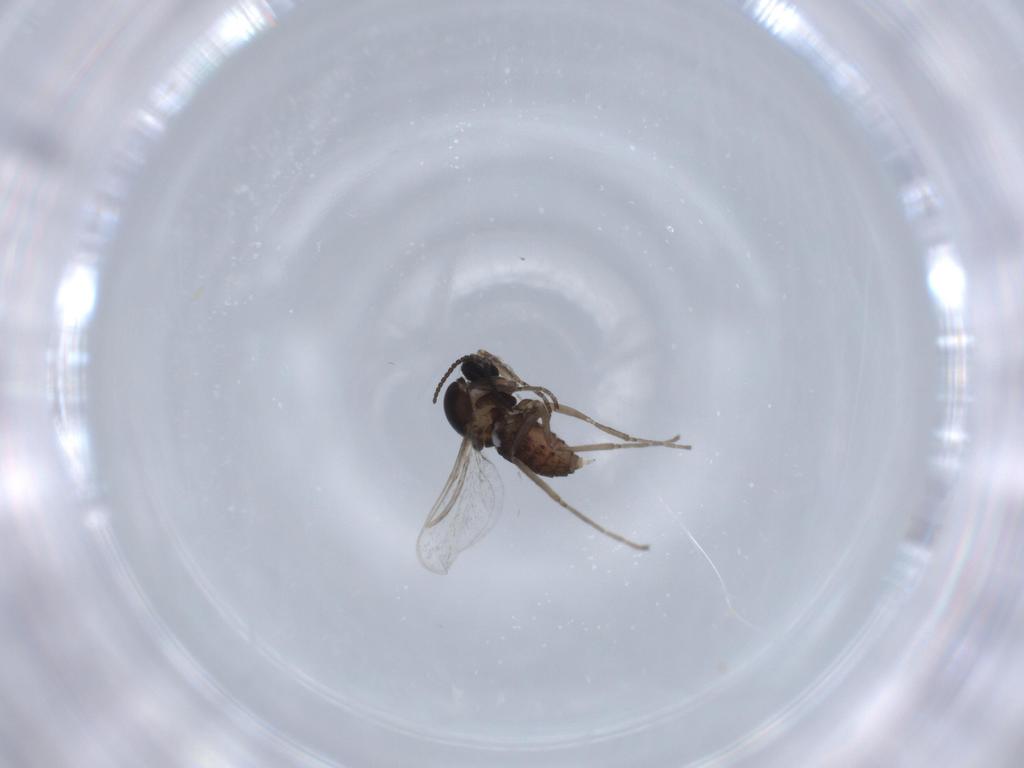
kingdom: Animalia
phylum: Arthropoda
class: Insecta
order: Diptera
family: Cecidomyiidae
